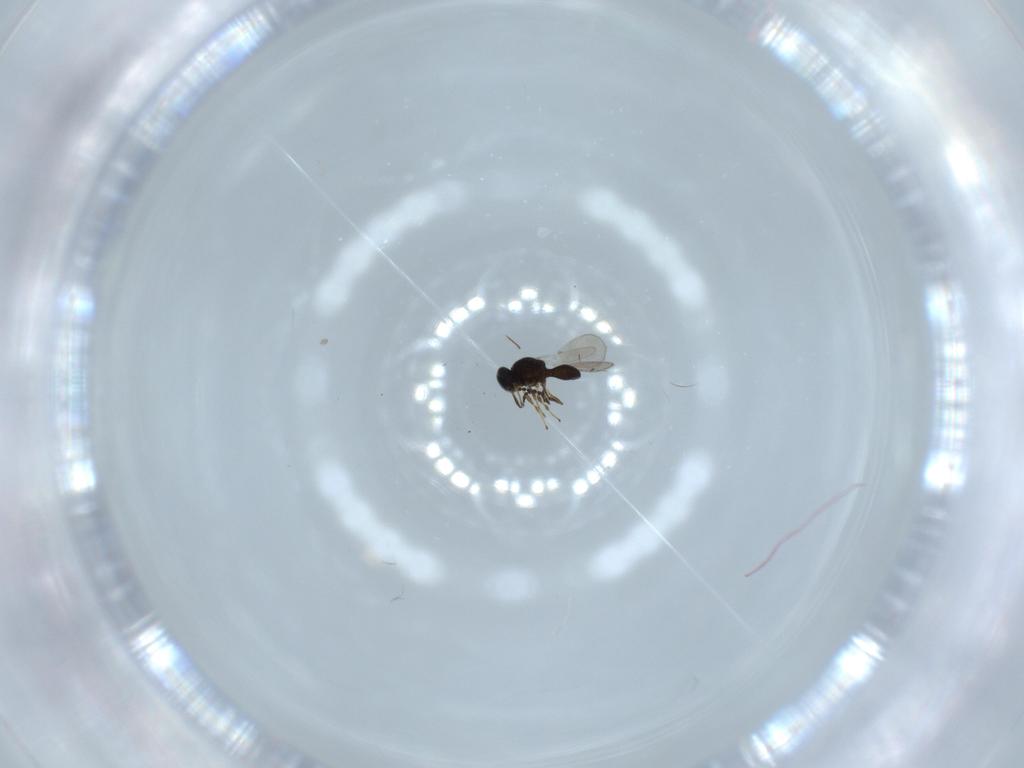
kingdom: Animalia
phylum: Arthropoda
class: Insecta
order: Hymenoptera
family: Platygastridae
